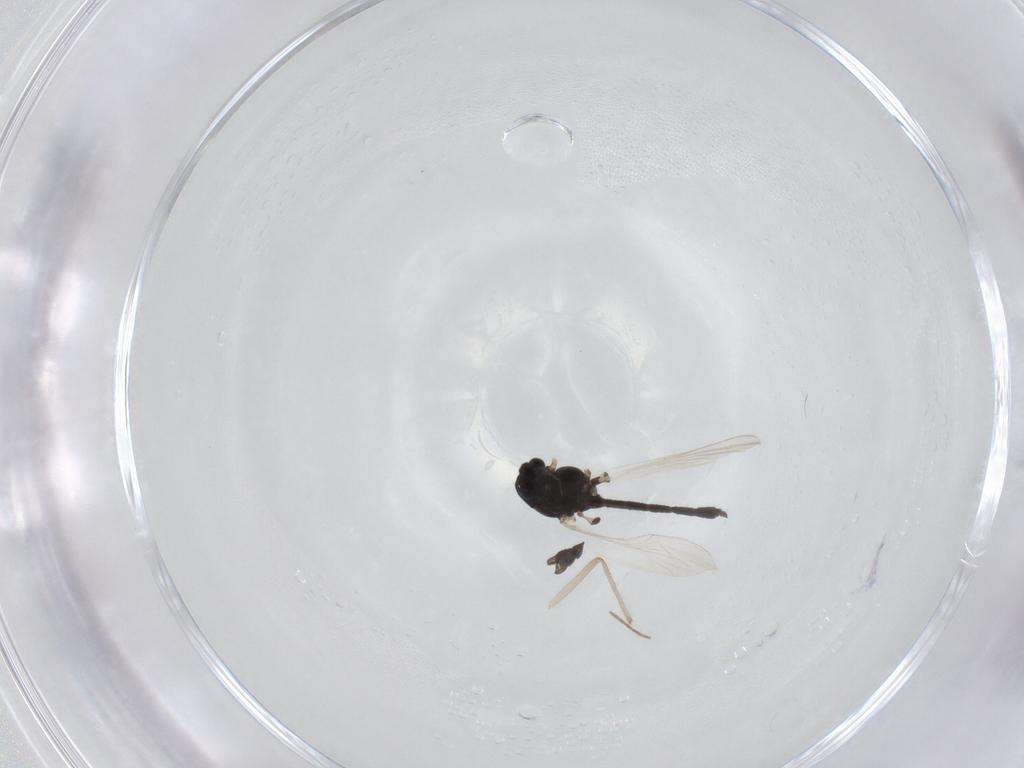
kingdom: Animalia
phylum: Arthropoda
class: Insecta
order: Diptera
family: Chironomidae
